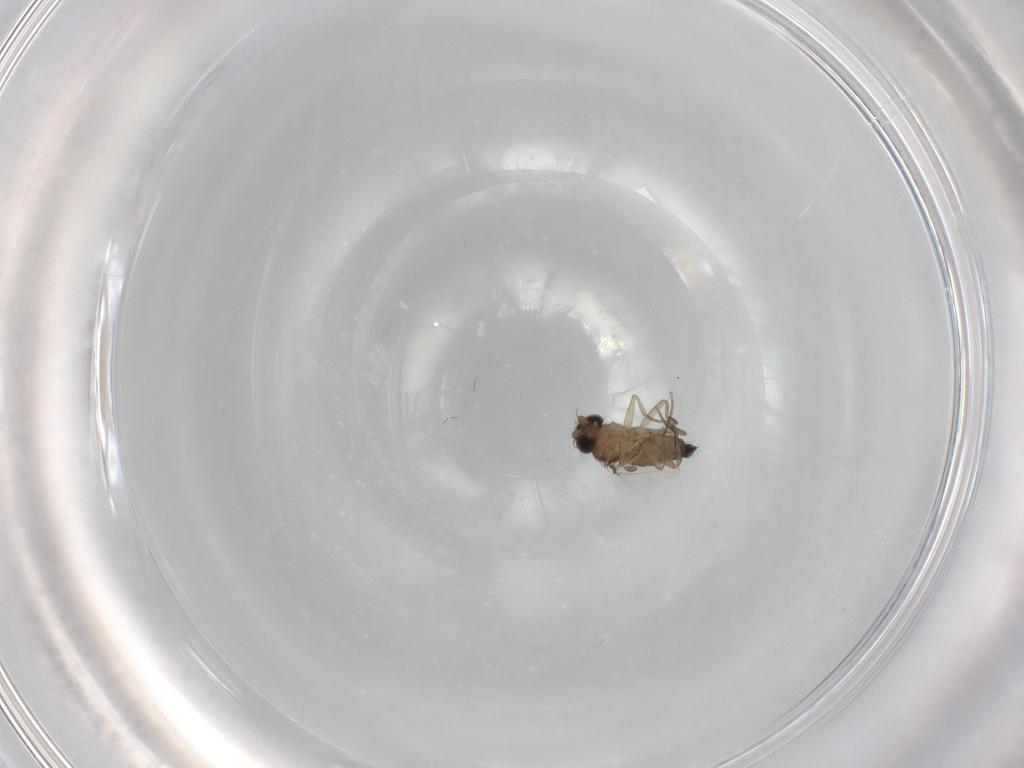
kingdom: Animalia
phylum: Arthropoda
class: Insecta
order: Diptera
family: Phoridae
